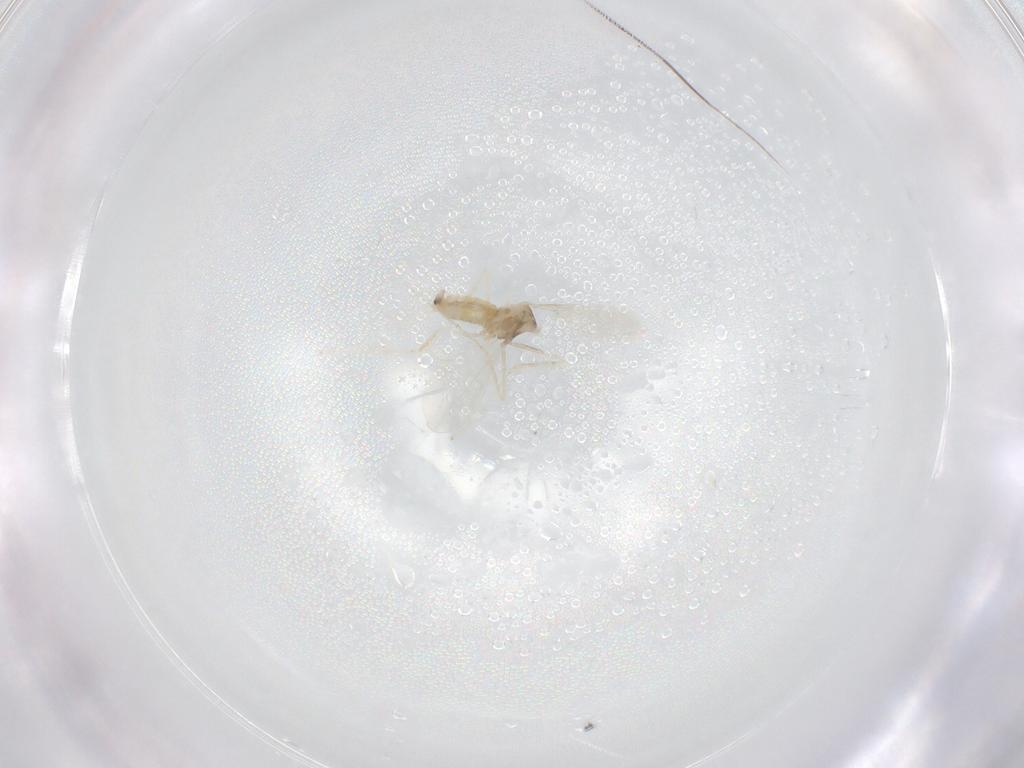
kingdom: Animalia
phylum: Arthropoda
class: Insecta
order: Diptera
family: Cecidomyiidae
